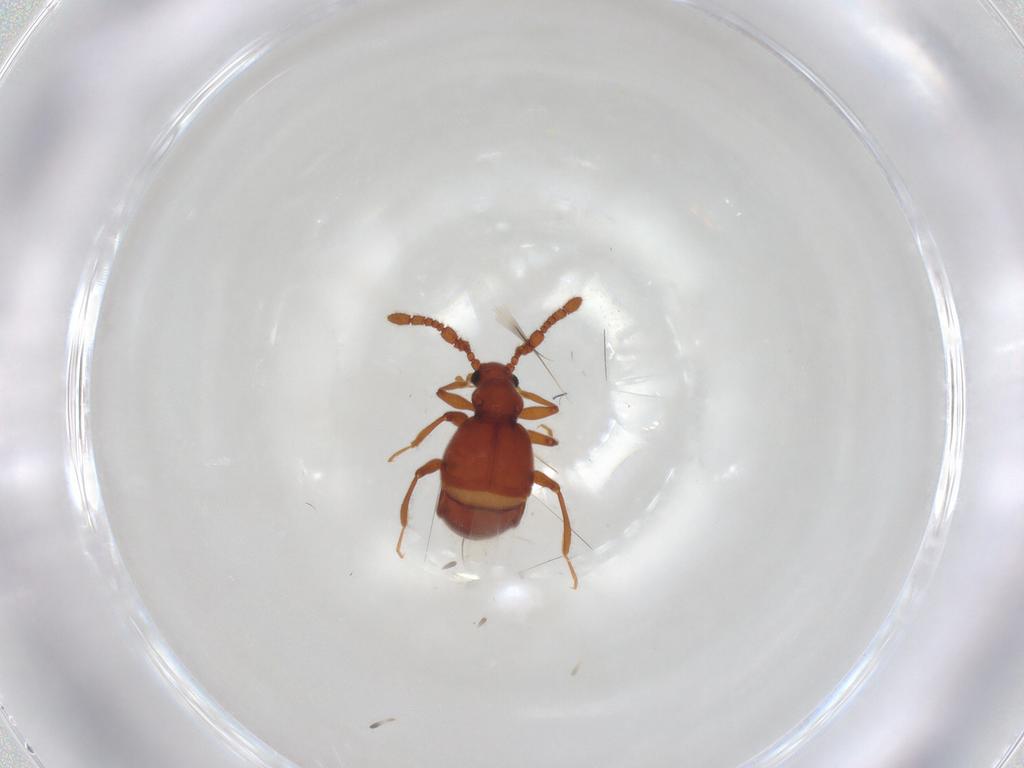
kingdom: Animalia
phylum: Arthropoda
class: Insecta
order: Coleoptera
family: Staphylinidae
